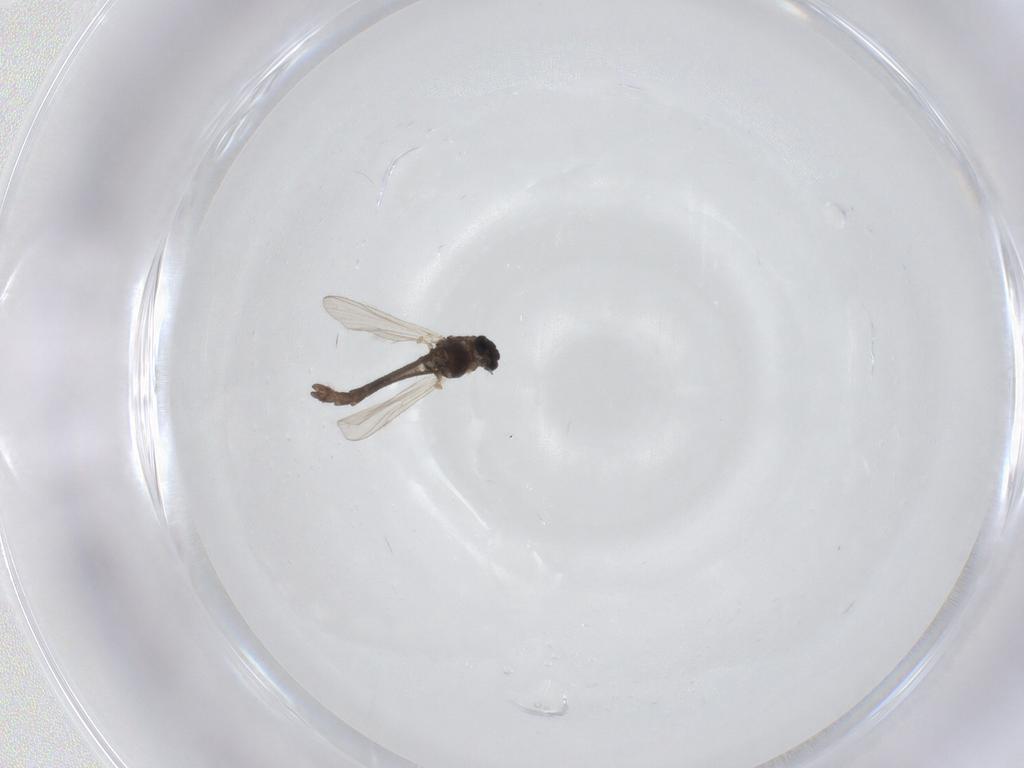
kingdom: Animalia
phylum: Arthropoda
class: Insecta
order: Diptera
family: Chironomidae
